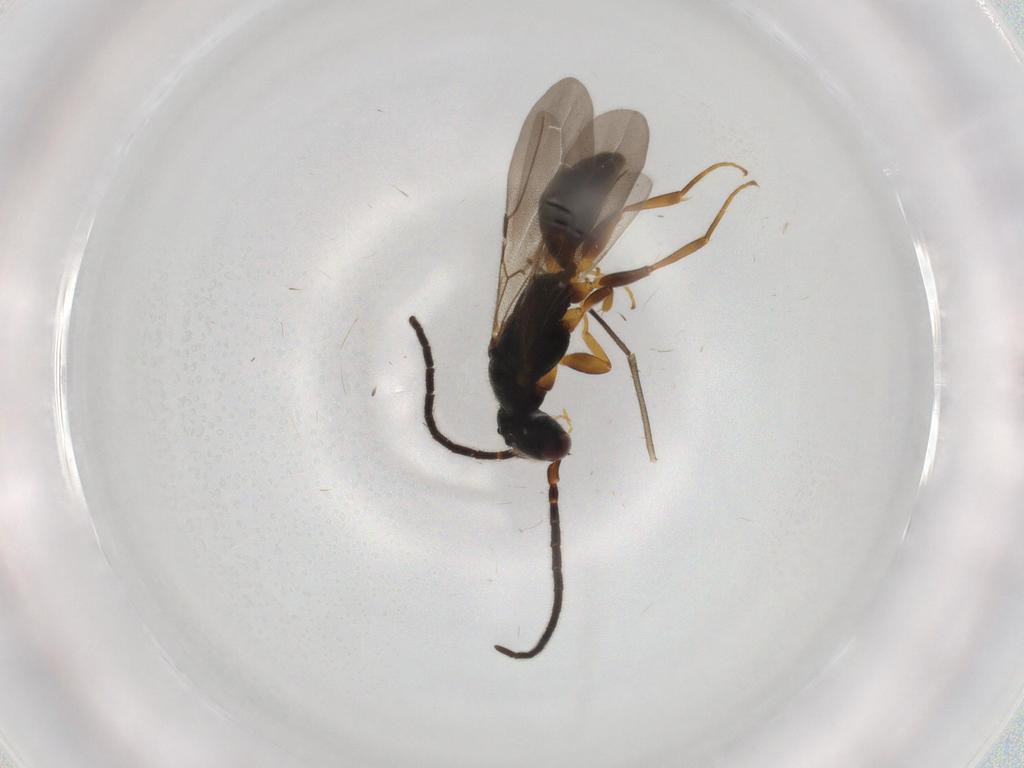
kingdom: Animalia
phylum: Arthropoda
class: Insecta
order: Hymenoptera
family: Bethylidae
